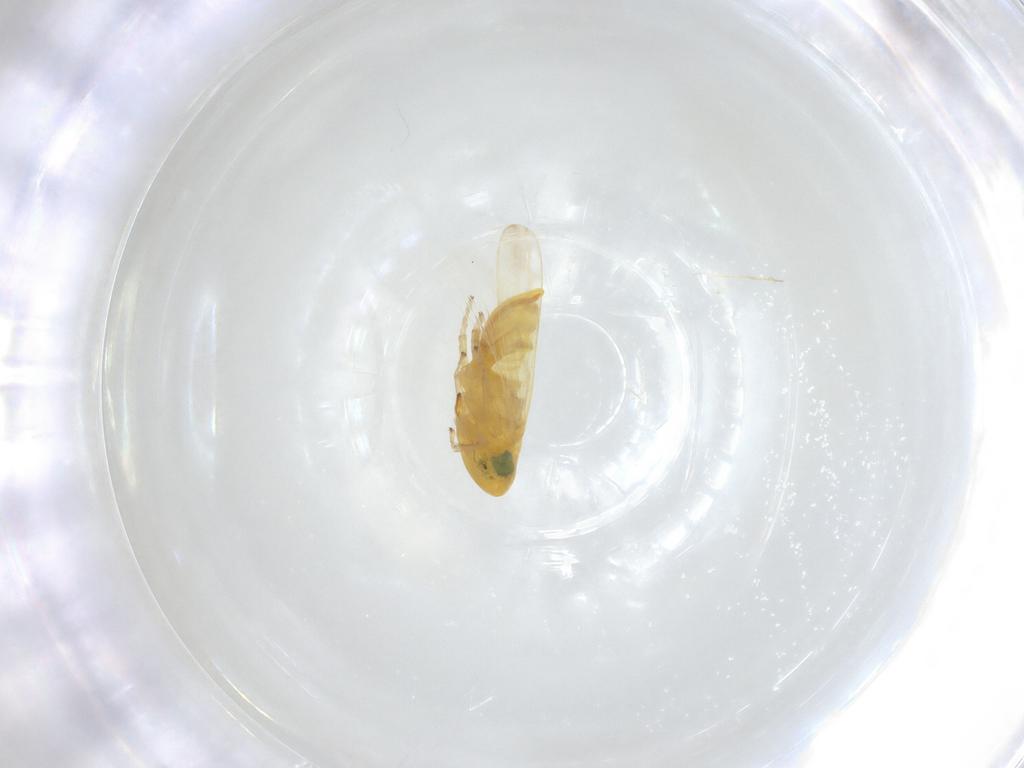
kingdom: Animalia
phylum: Arthropoda
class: Insecta
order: Hemiptera
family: Cicadellidae
